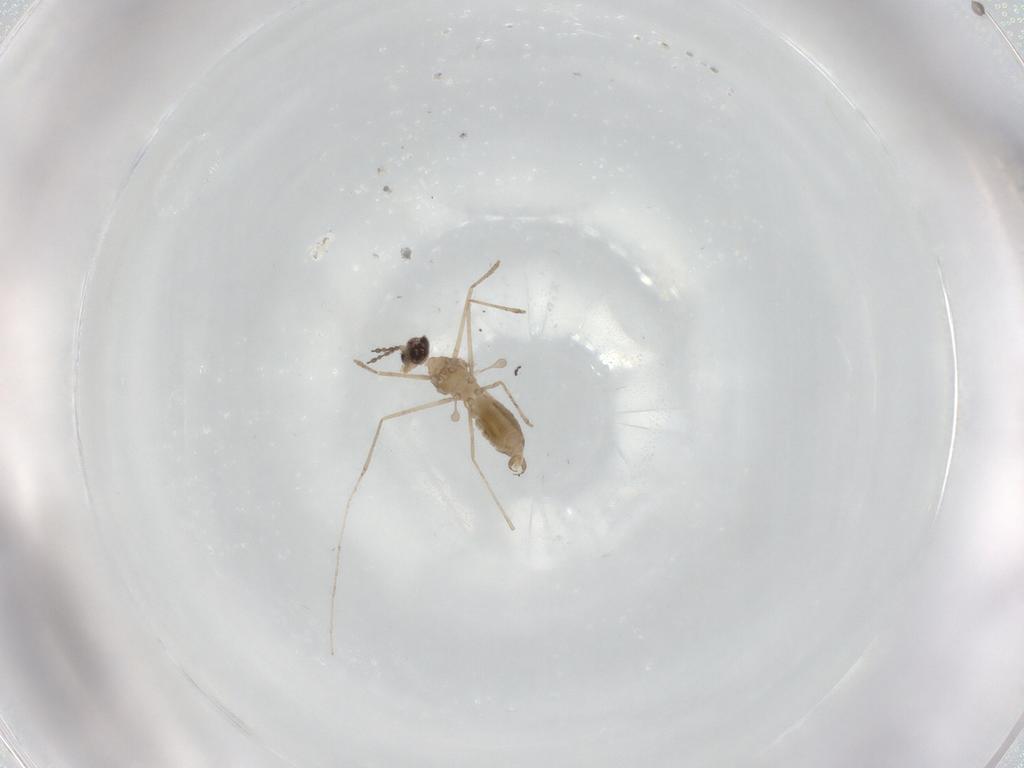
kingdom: Animalia
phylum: Arthropoda
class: Insecta
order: Diptera
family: Cecidomyiidae
